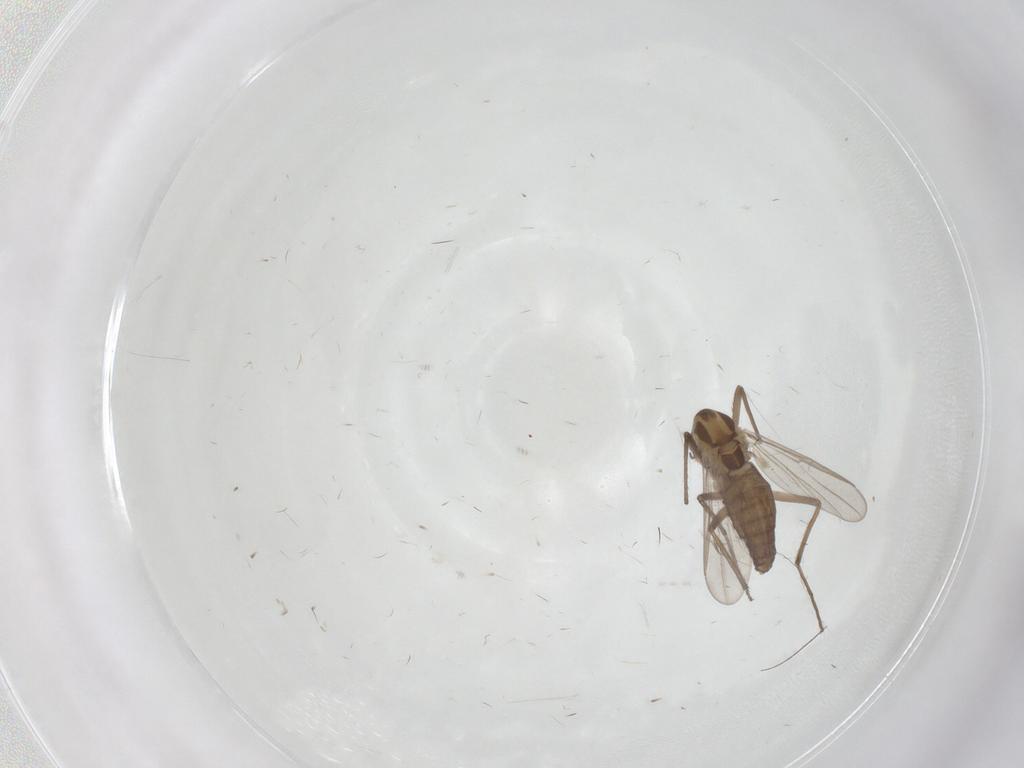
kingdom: Animalia
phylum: Arthropoda
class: Insecta
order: Diptera
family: Chironomidae
